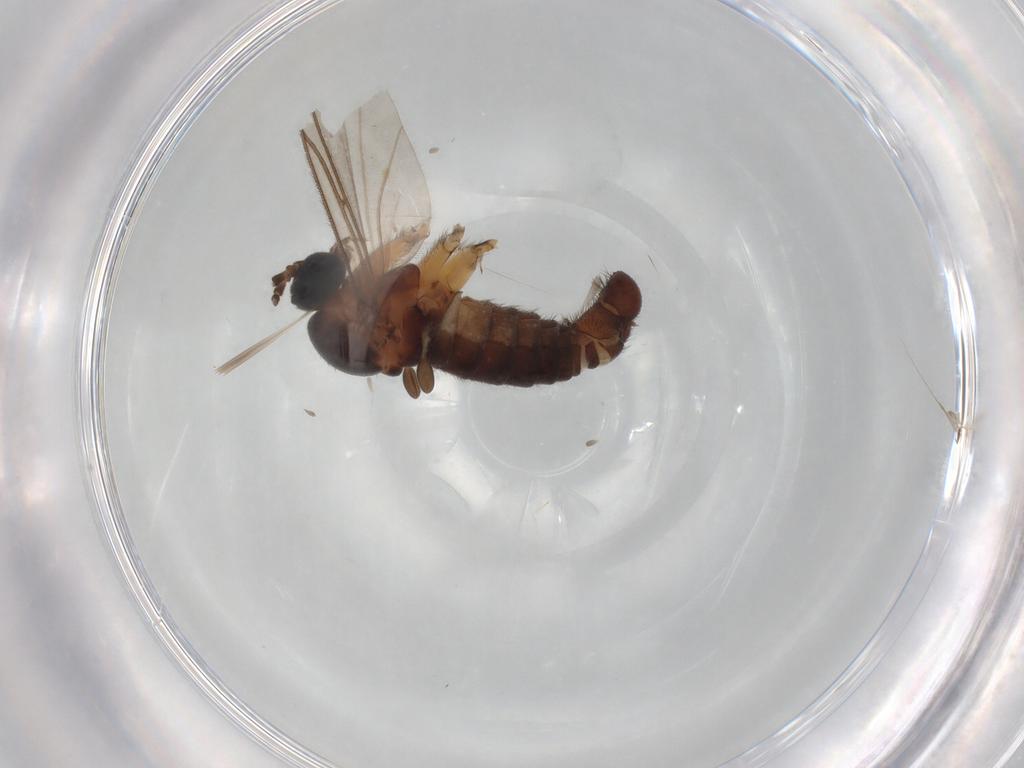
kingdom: Animalia
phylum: Arthropoda
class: Insecta
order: Diptera
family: Sciaridae
